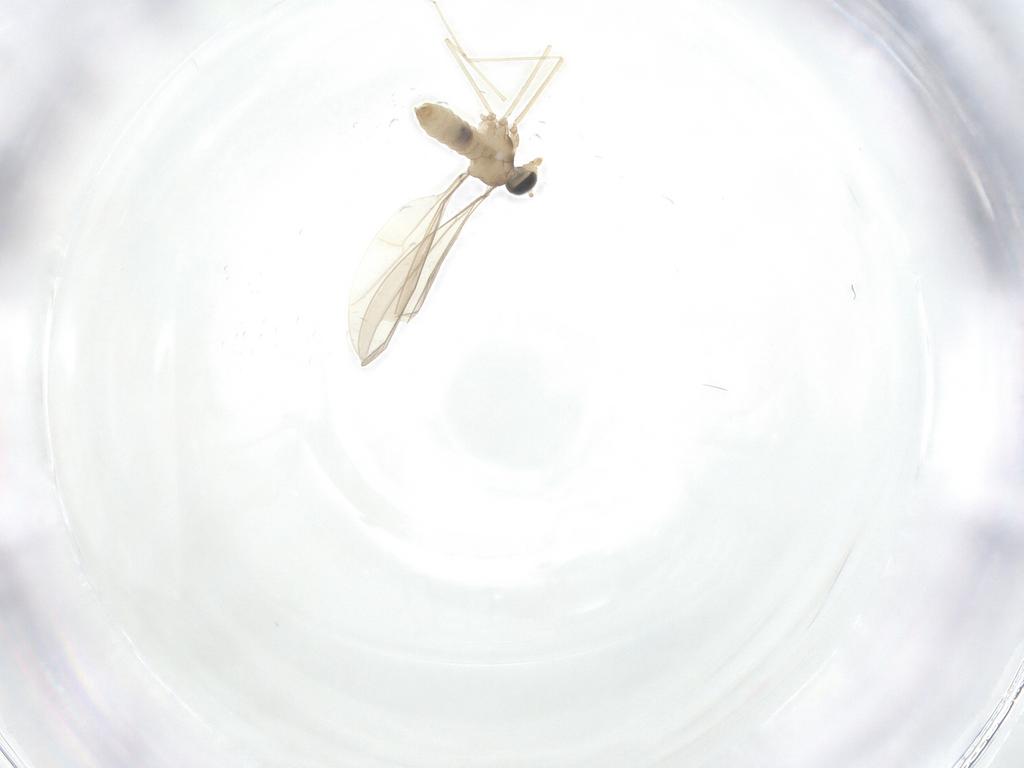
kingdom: Animalia
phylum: Arthropoda
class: Insecta
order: Diptera
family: Cecidomyiidae
